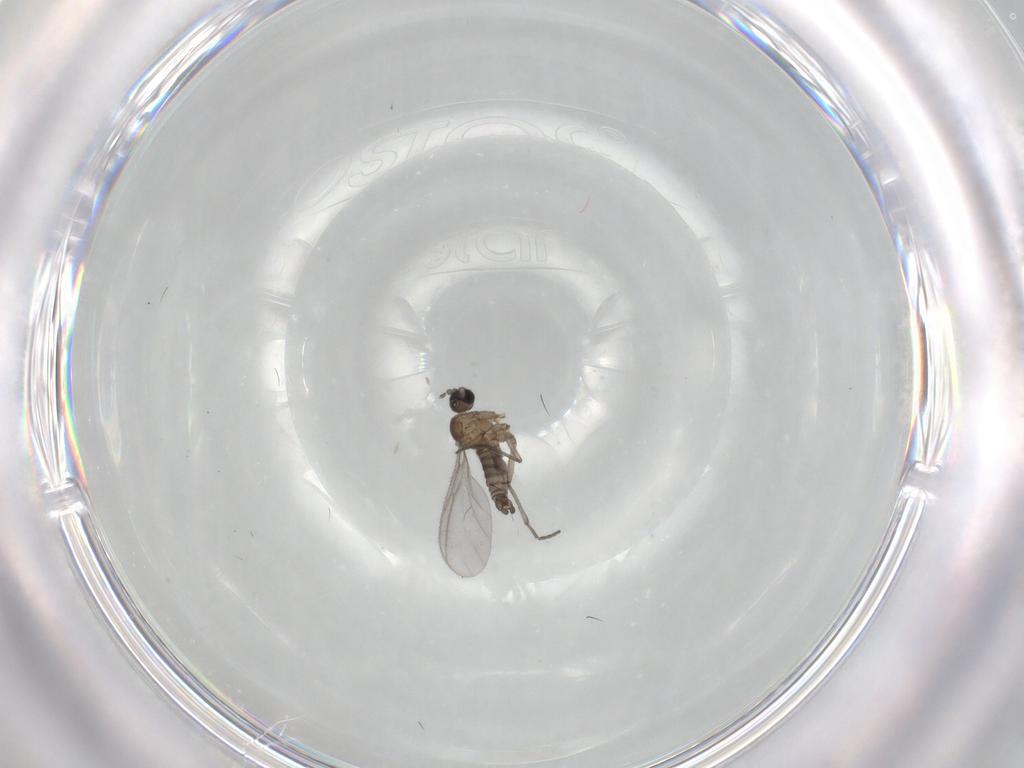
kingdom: Animalia
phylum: Arthropoda
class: Insecta
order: Diptera
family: Sciaridae
